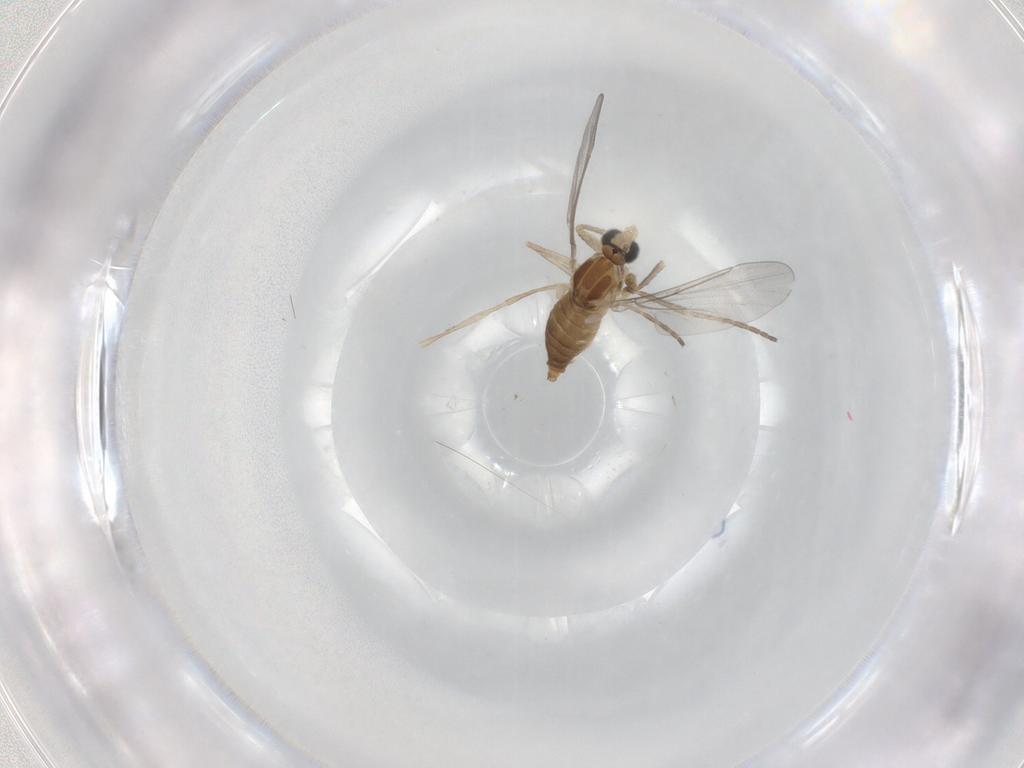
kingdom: Animalia
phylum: Arthropoda
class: Insecta
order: Diptera
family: Cecidomyiidae
